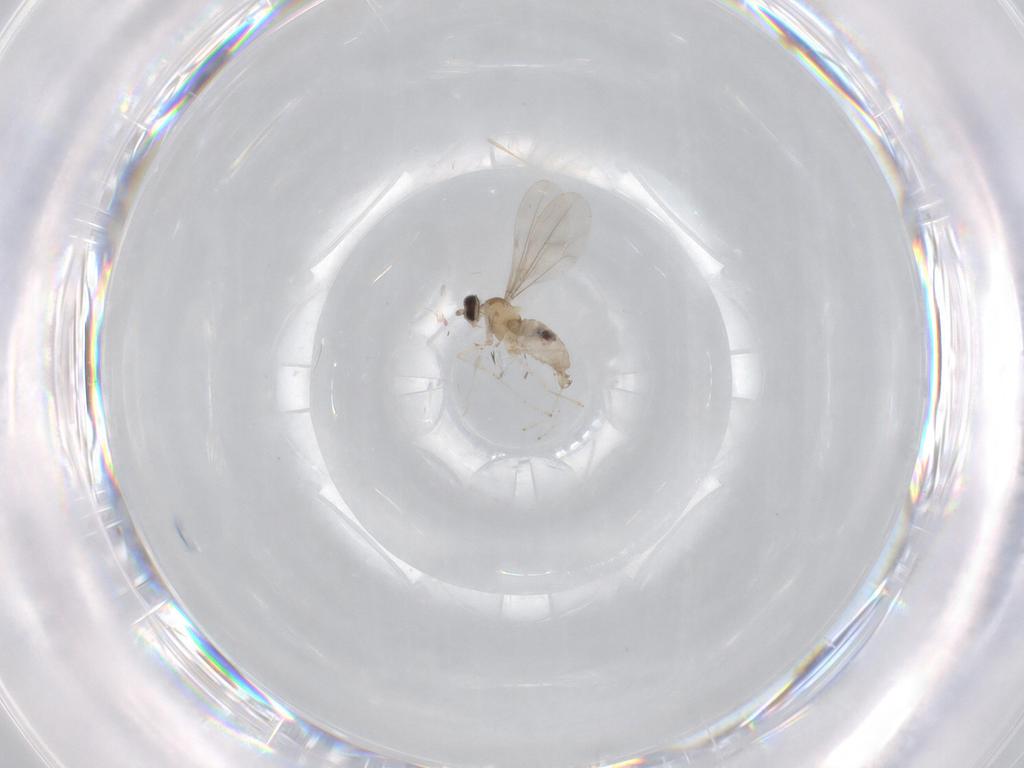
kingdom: Animalia
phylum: Arthropoda
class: Insecta
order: Diptera
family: Cecidomyiidae
